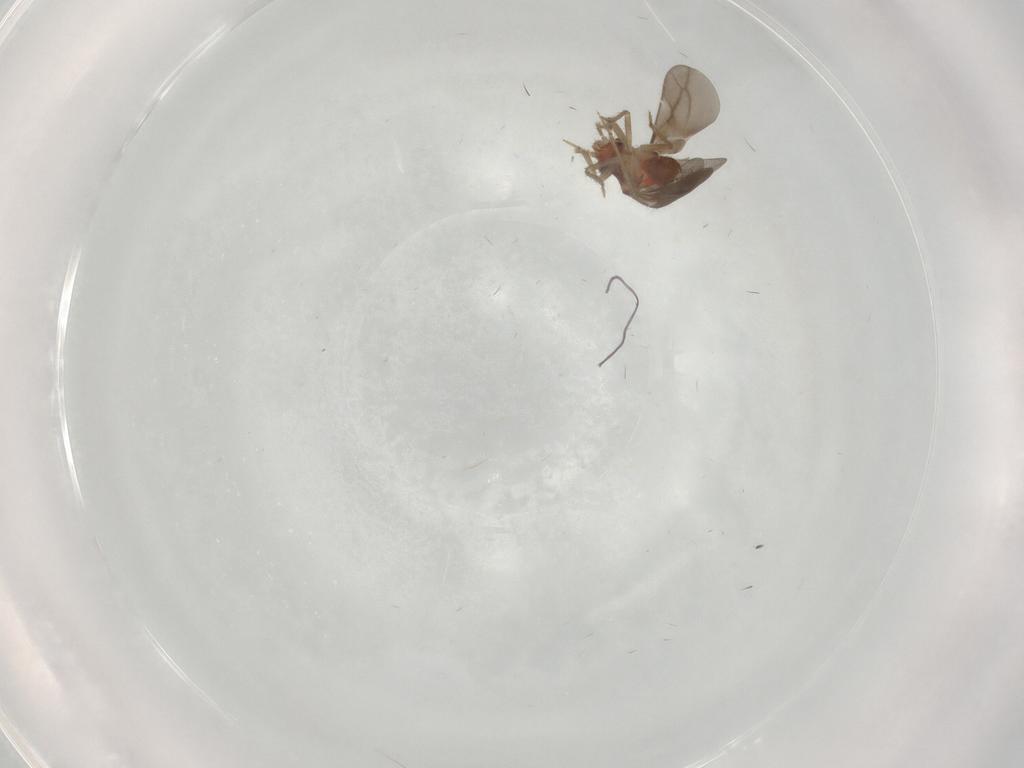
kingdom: Animalia
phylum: Arthropoda
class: Insecta
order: Hemiptera
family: Ceratocombidae
